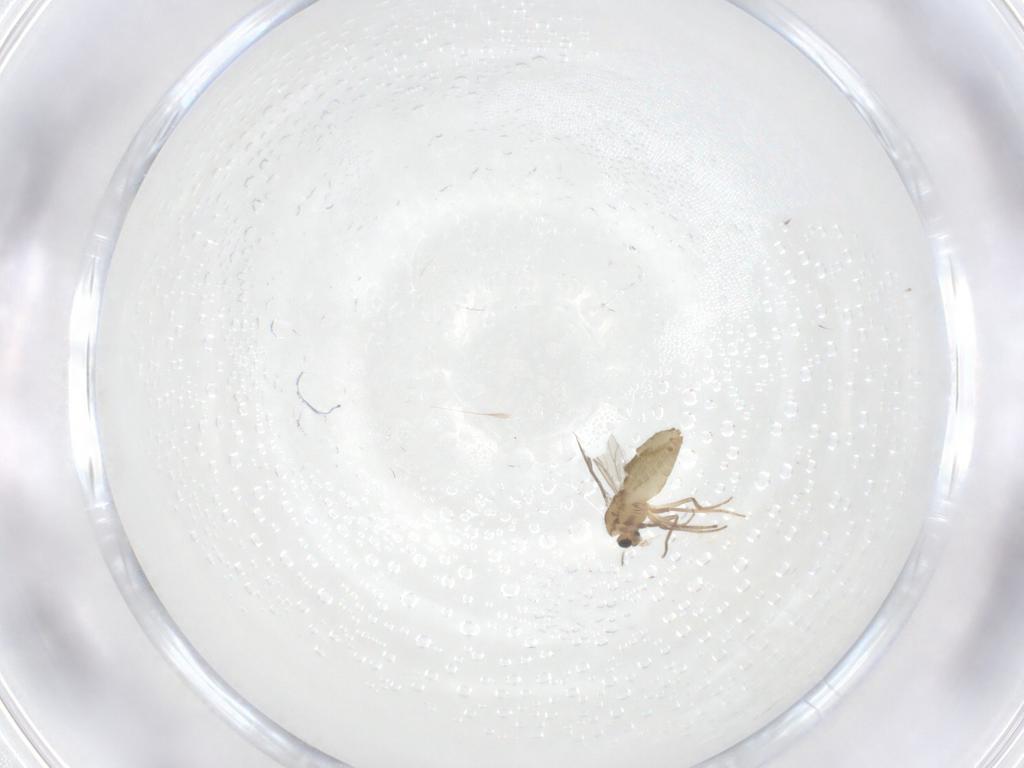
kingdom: Animalia
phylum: Arthropoda
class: Insecta
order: Diptera
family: Chironomidae
